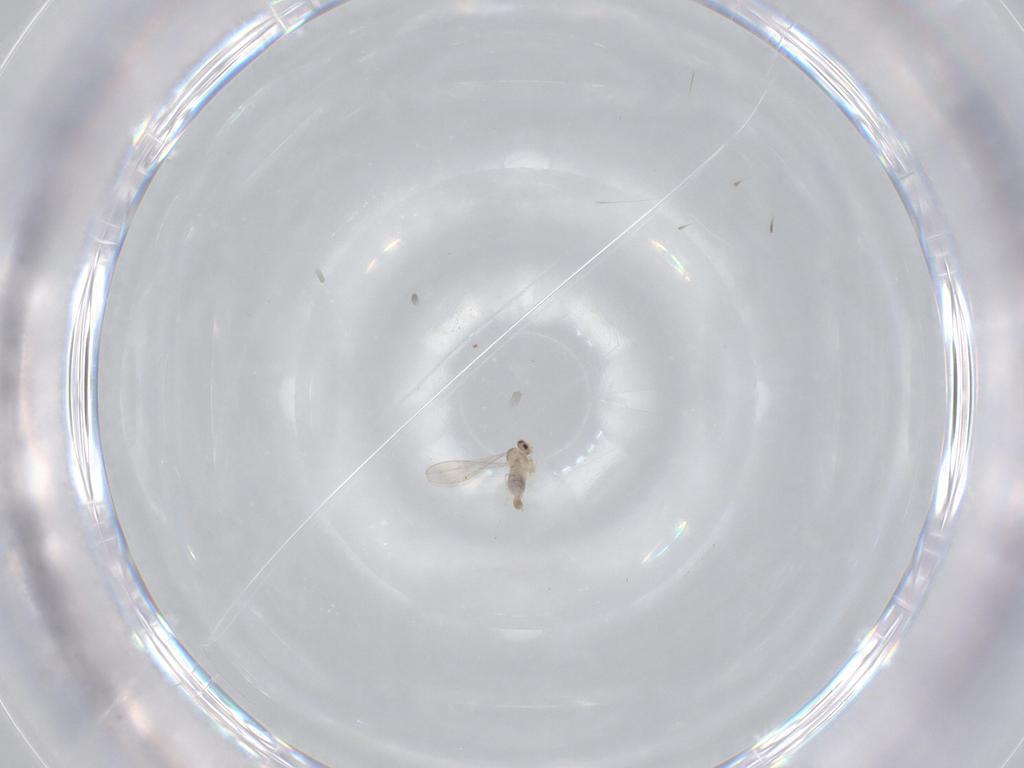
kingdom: Animalia
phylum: Arthropoda
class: Insecta
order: Diptera
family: Cecidomyiidae
